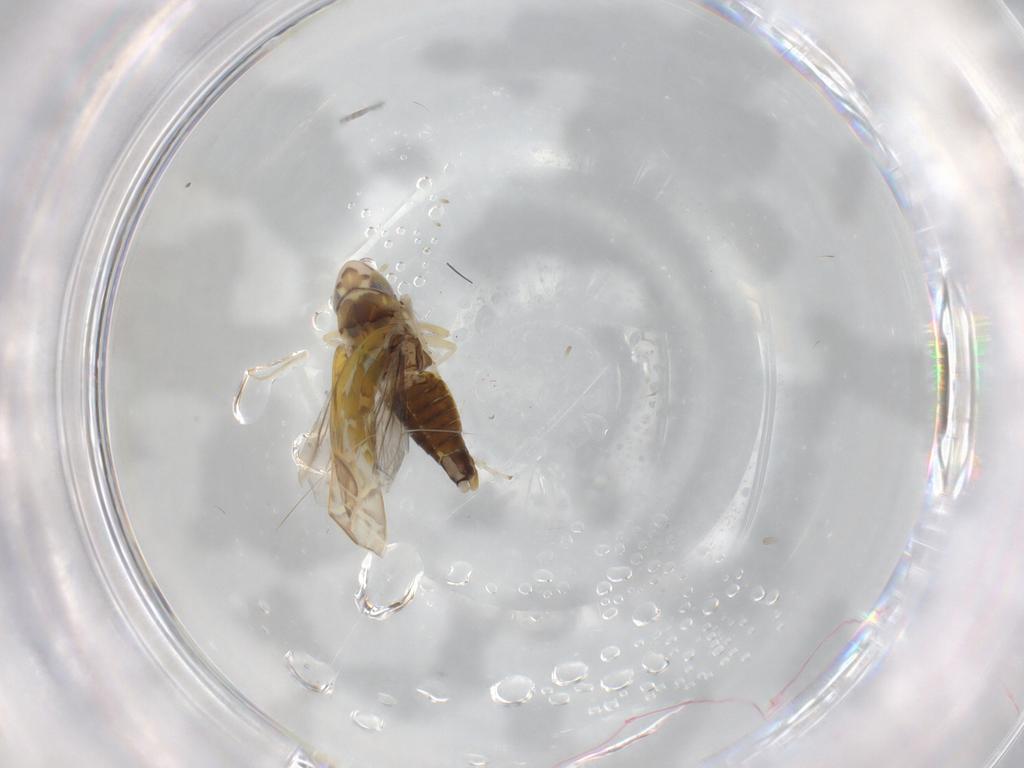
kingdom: Animalia
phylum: Arthropoda
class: Insecta
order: Hemiptera
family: Cicadellidae
